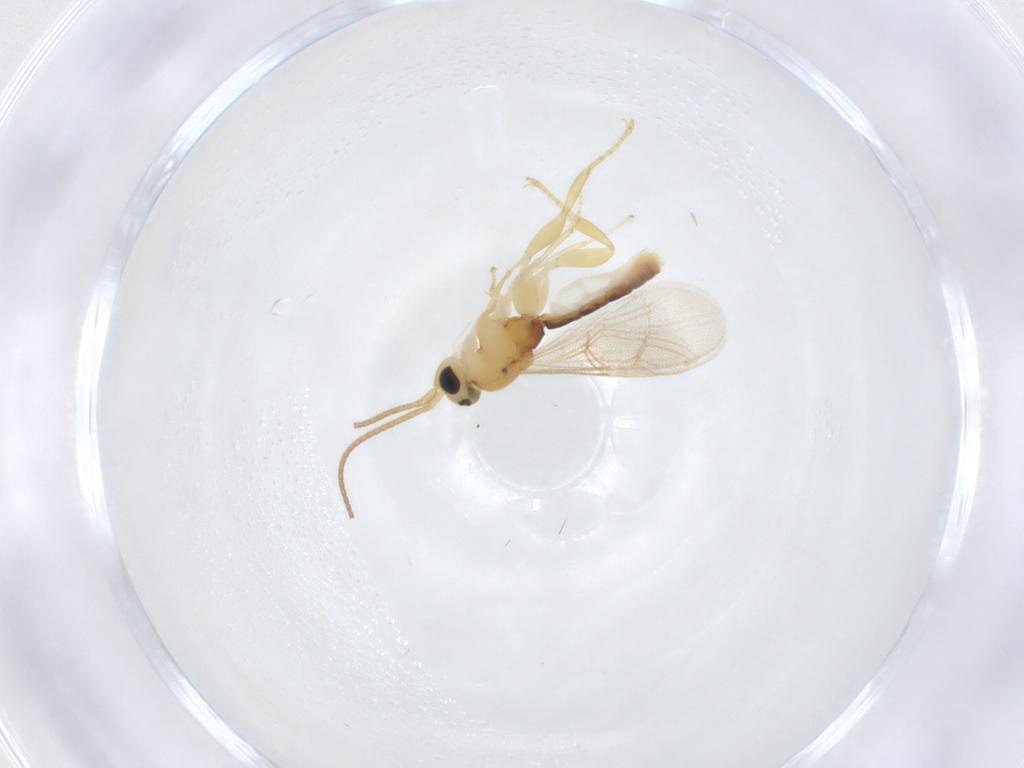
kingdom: Animalia
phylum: Arthropoda
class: Insecta
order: Hymenoptera
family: Ichneumonidae
